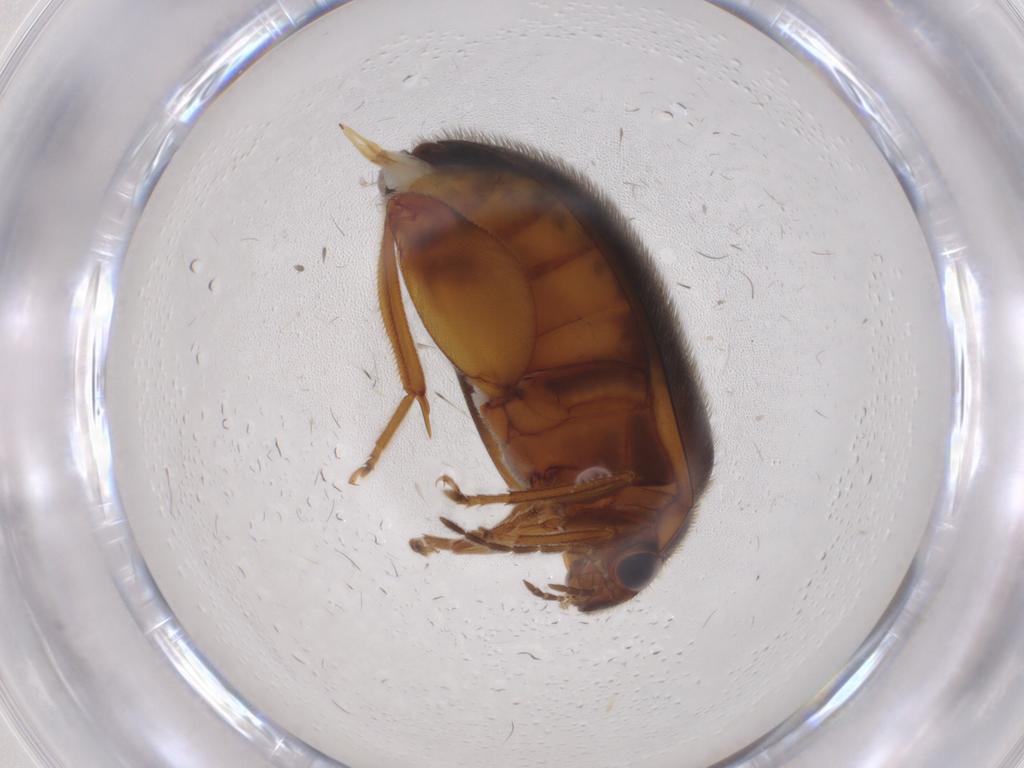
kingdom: Animalia
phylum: Arthropoda
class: Insecta
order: Coleoptera
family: Scirtidae
